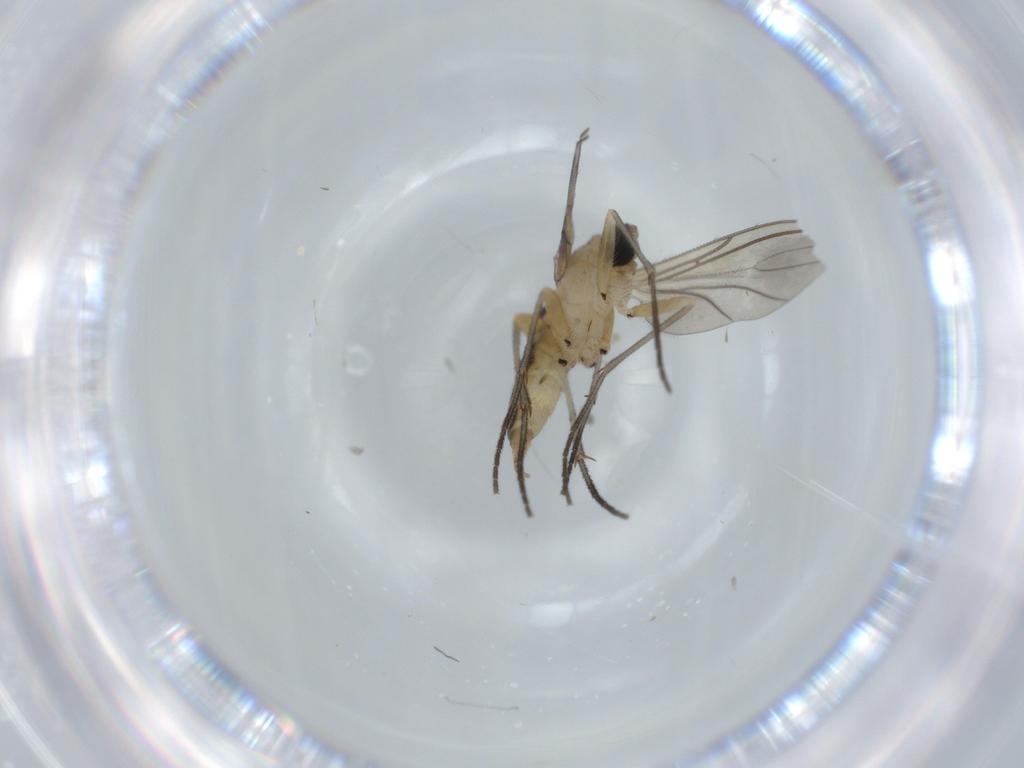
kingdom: Animalia
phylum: Arthropoda
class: Insecta
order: Diptera
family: Sciaridae
